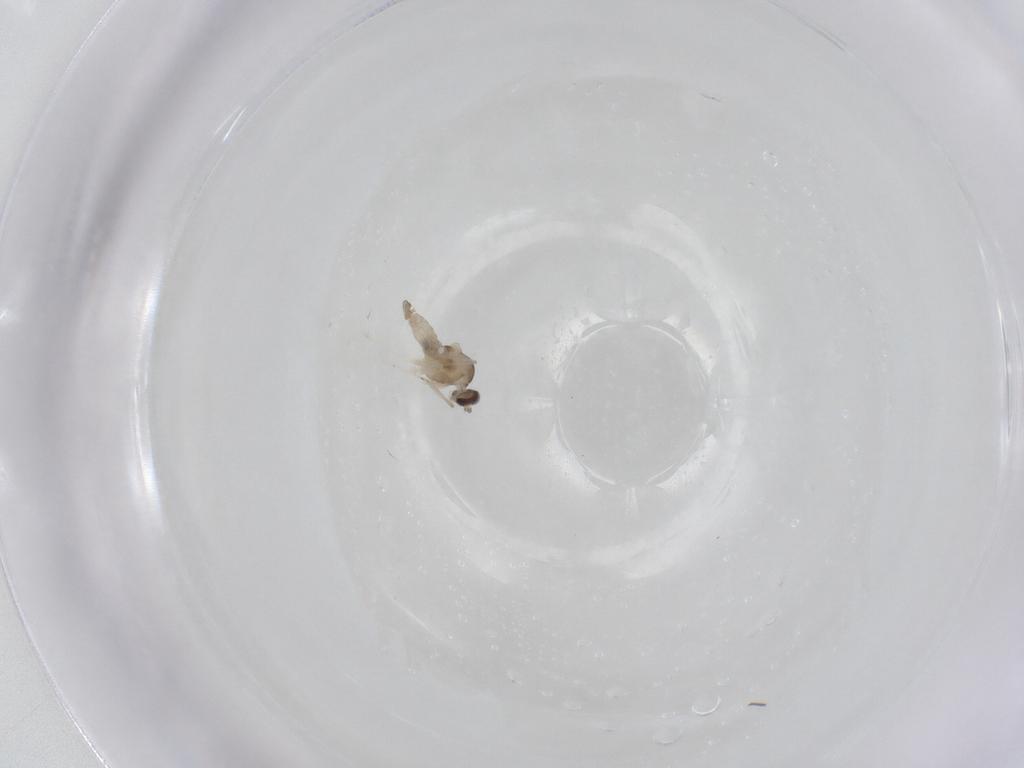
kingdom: Animalia
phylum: Arthropoda
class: Insecta
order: Diptera
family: Cecidomyiidae
